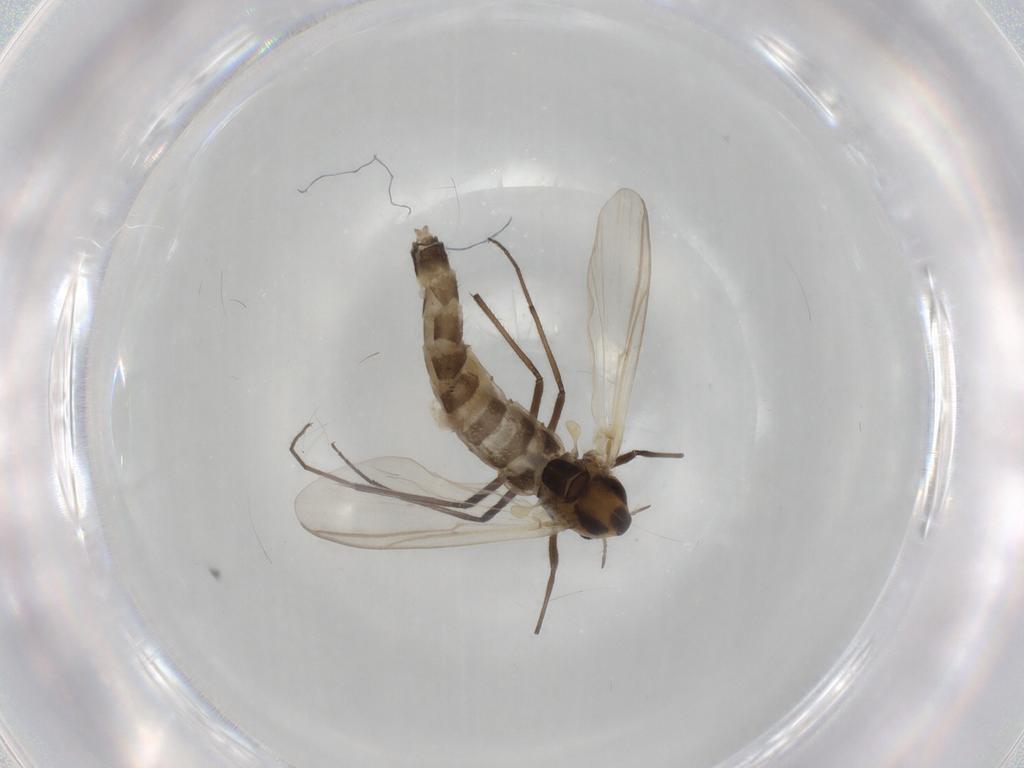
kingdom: Animalia
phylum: Arthropoda
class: Insecta
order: Diptera
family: Chironomidae
